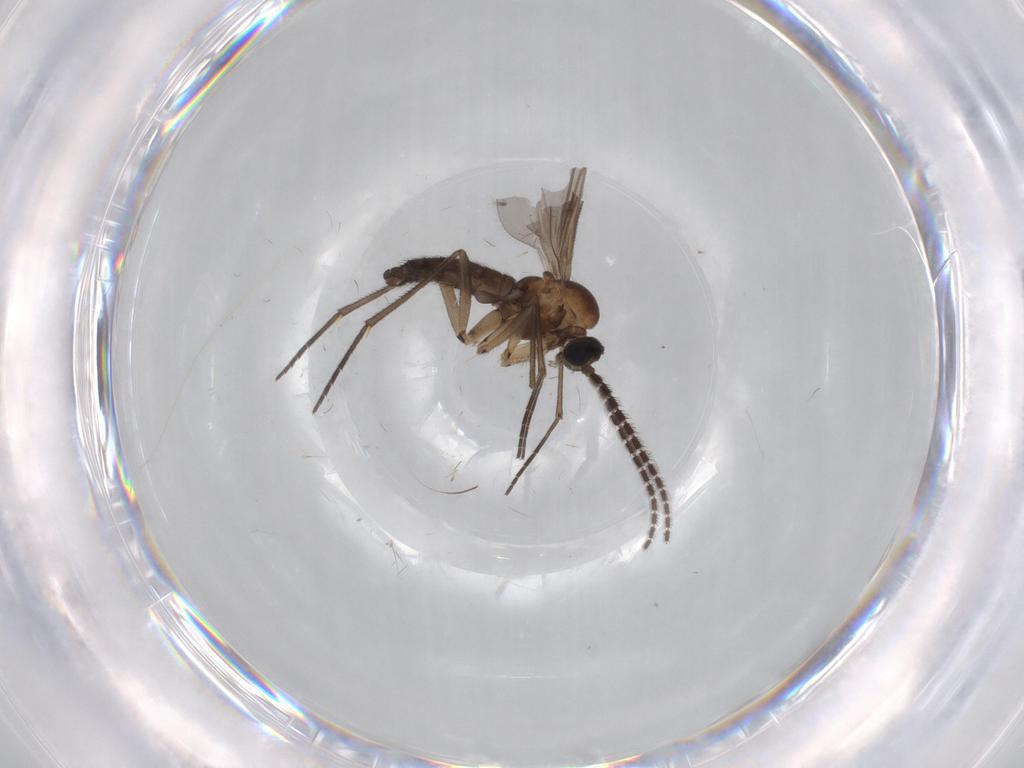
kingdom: Animalia
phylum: Arthropoda
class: Insecta
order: Diptera
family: Sciaridae
